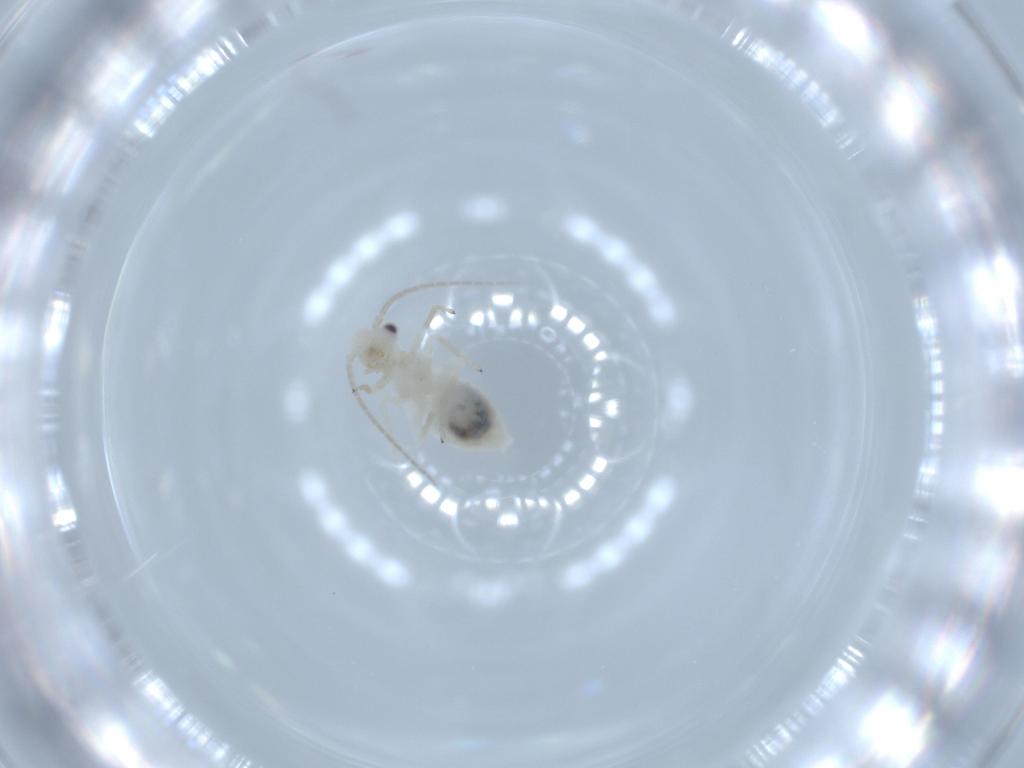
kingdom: Animalia
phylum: Arthropoda
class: Insecta
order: Psocodea
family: Caeciliusidae
